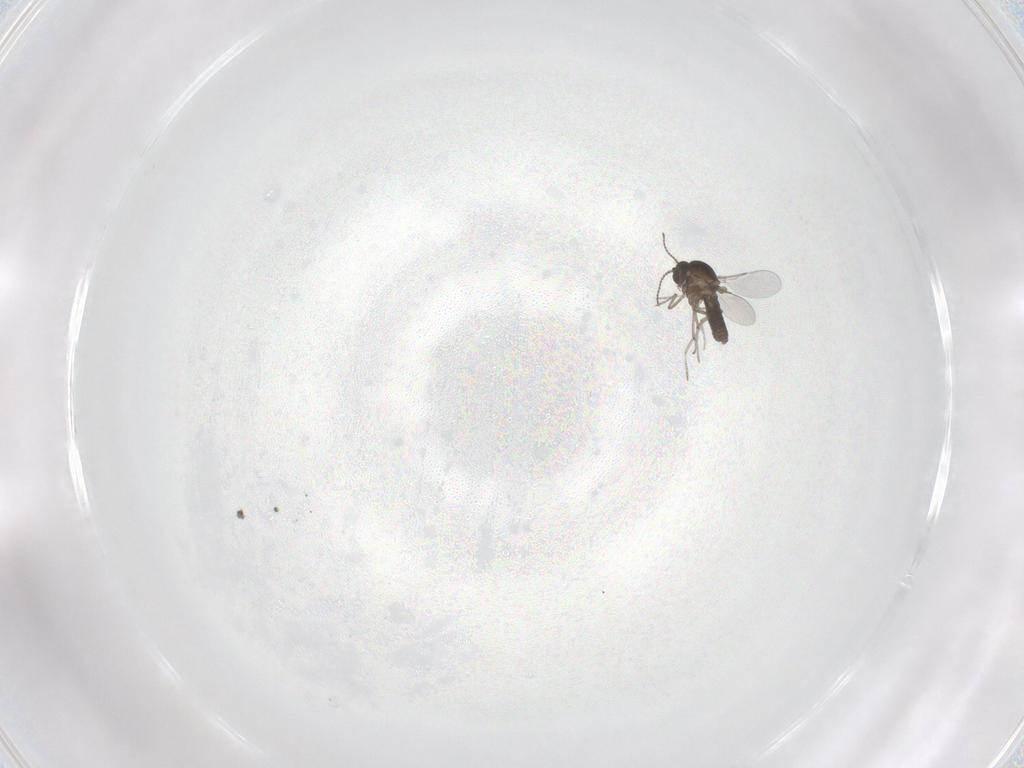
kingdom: Animalia
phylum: Arthropoda
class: Insecta
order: Diptera
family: Ceratopogonidae
